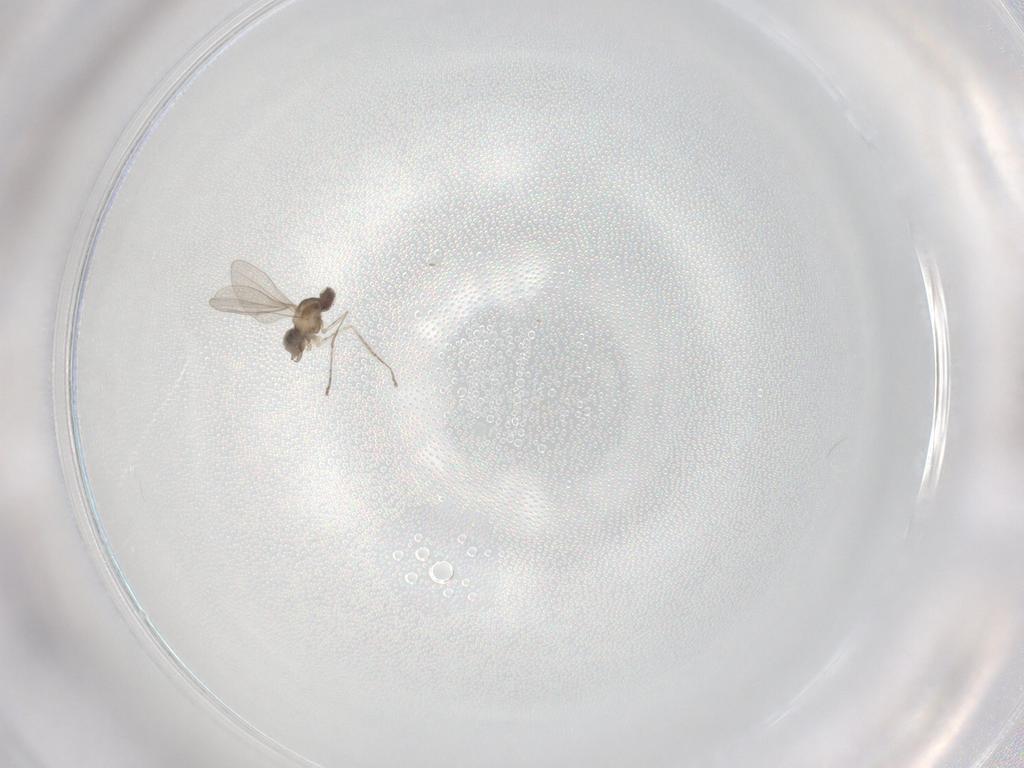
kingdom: Animalia
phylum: Arthropoda
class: Insecta
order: Diptera
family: Cecidomyiidae
